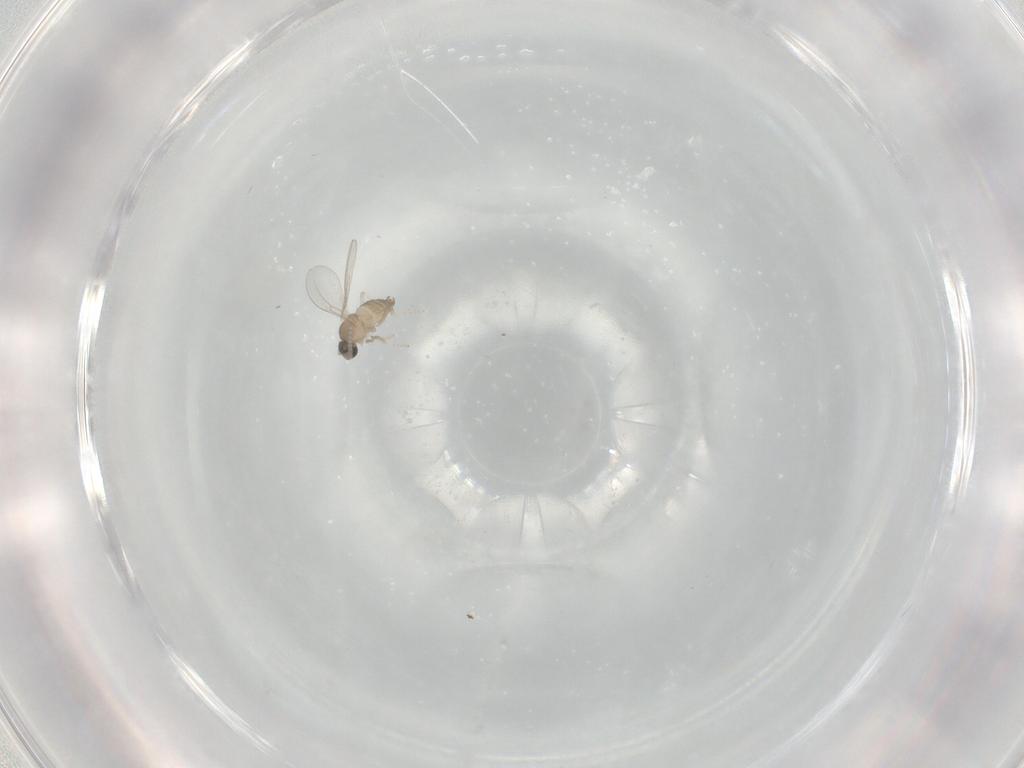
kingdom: Animalia
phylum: Arthropoda
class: Insecta
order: Diptera
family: Cecidomyiidae
